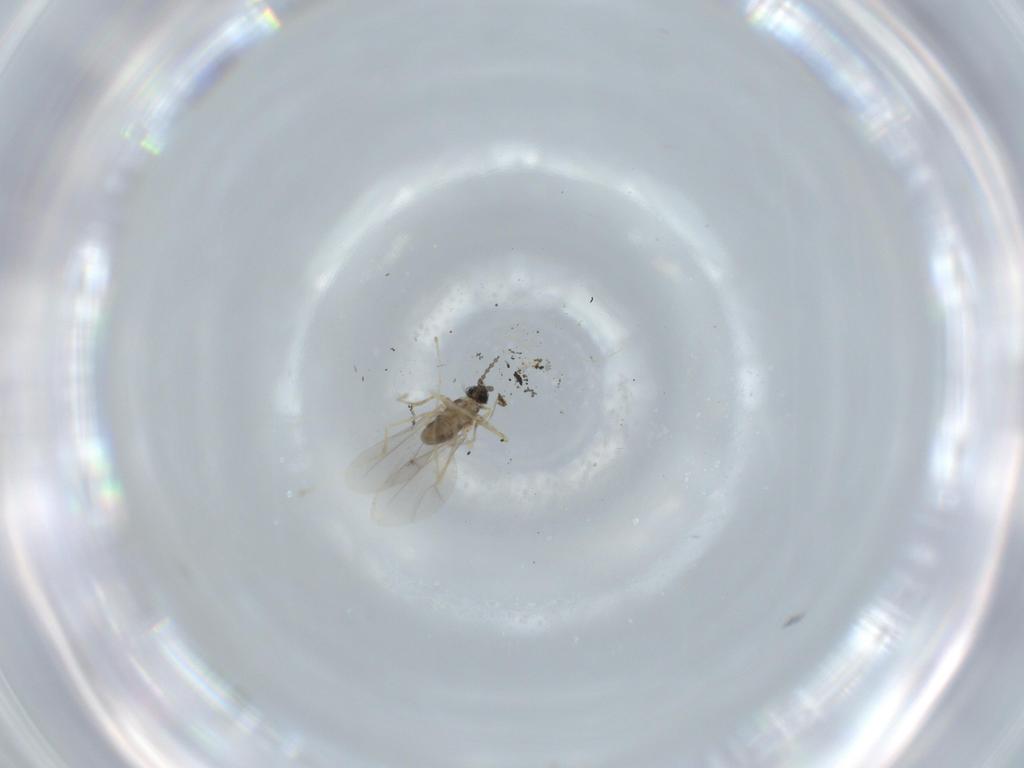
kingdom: Animalia
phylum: Arthropoda
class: Insecta
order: Diptera
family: Cecidomyiidae
